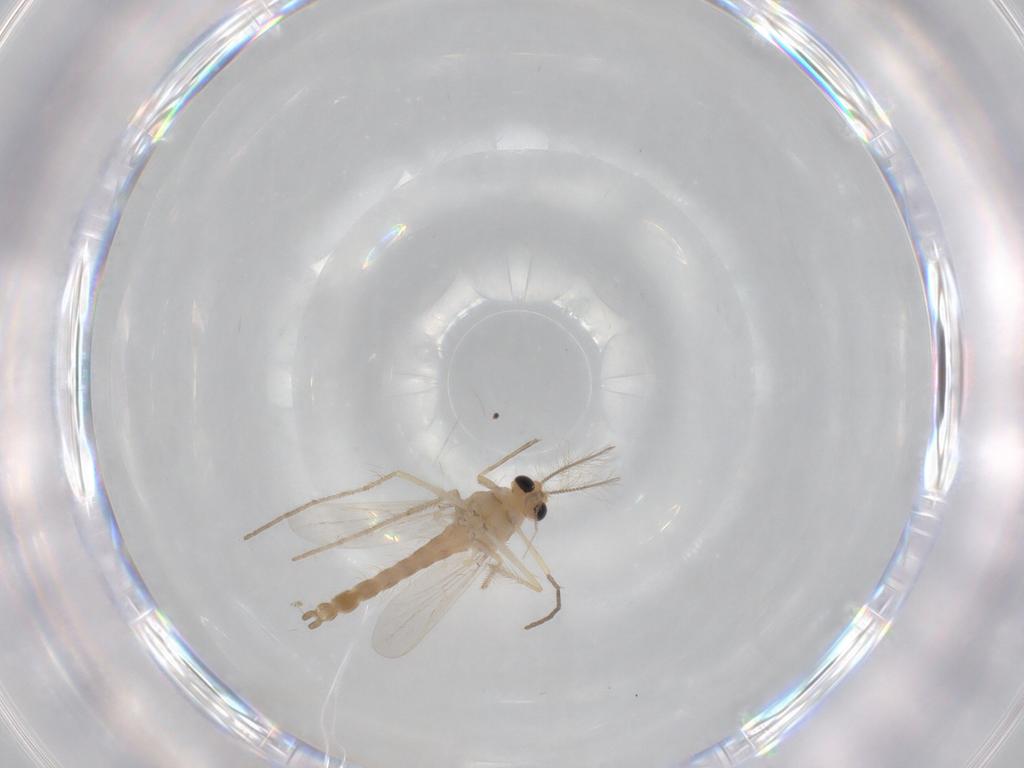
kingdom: Animalia
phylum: Arthropoda
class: Insecta
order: Diptera
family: Chironomidae
